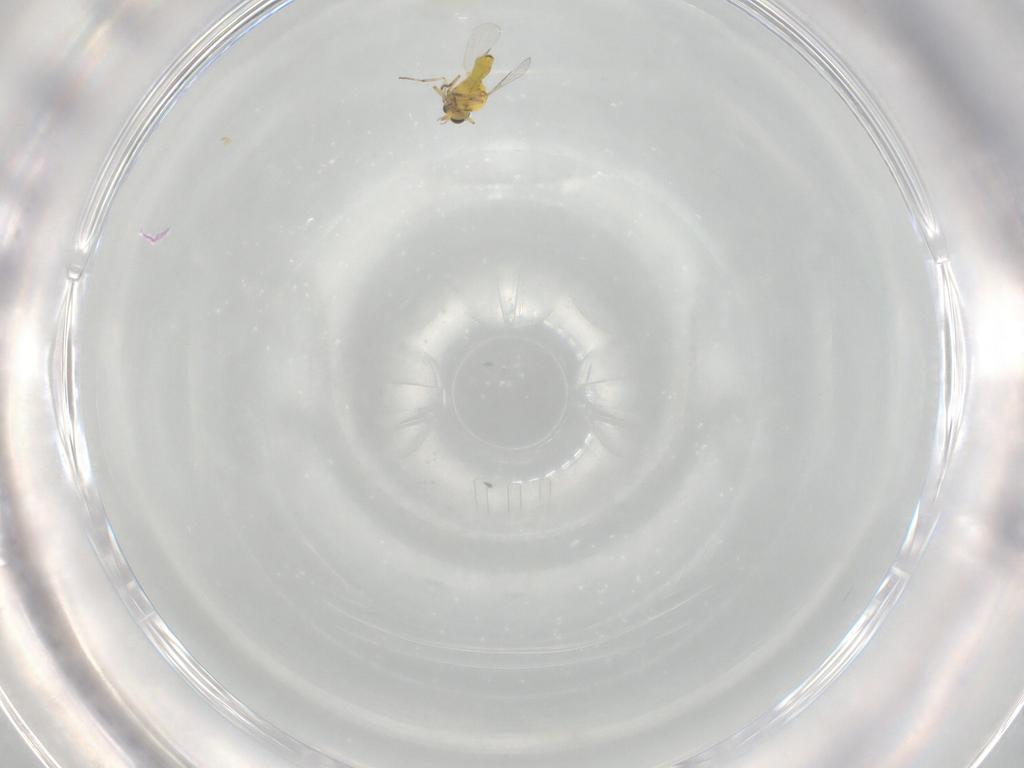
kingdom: Animalia
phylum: Arthropoda
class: Insecta
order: Diptera
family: Ceratopogonidae
